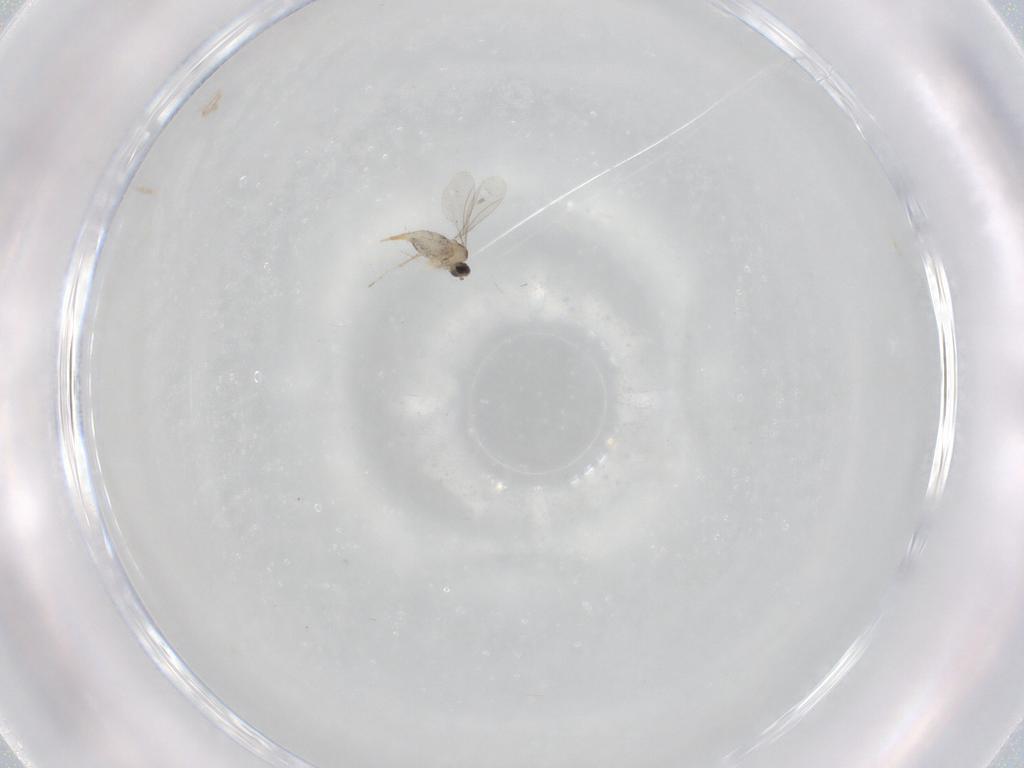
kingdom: Animalia
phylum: Arthropoda
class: Insecta
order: Diptera
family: Cecidomyiidae
